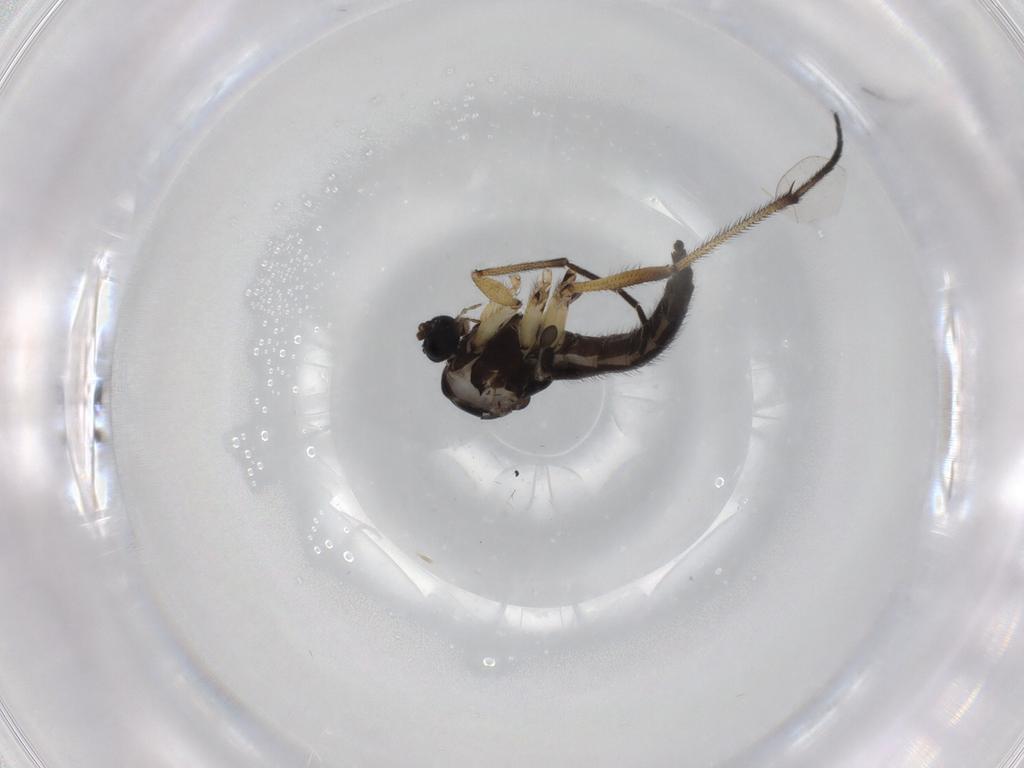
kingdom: Animalia
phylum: Arthropoda
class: Insecta
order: Diptera
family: Sciaridae
